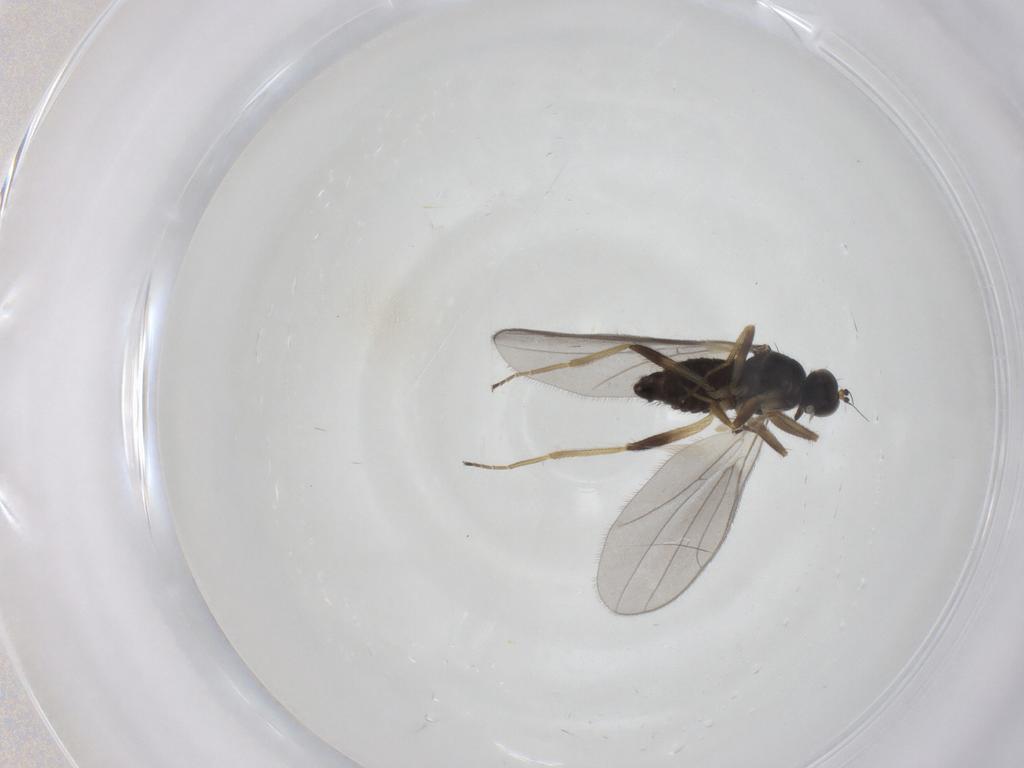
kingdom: Animalia
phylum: Arthropoda
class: Insecta
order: Diptera
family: Hybotidae
